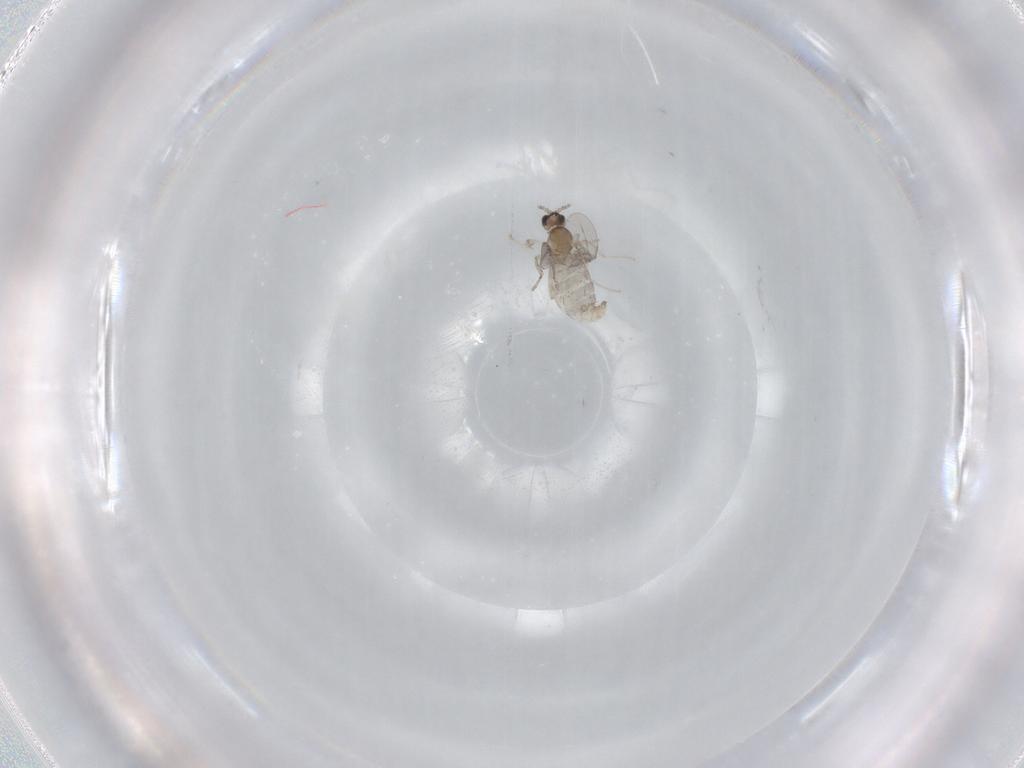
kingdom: Animalia
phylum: Arthropoda
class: Insecta
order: Diptera
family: Cecidomyiidae
